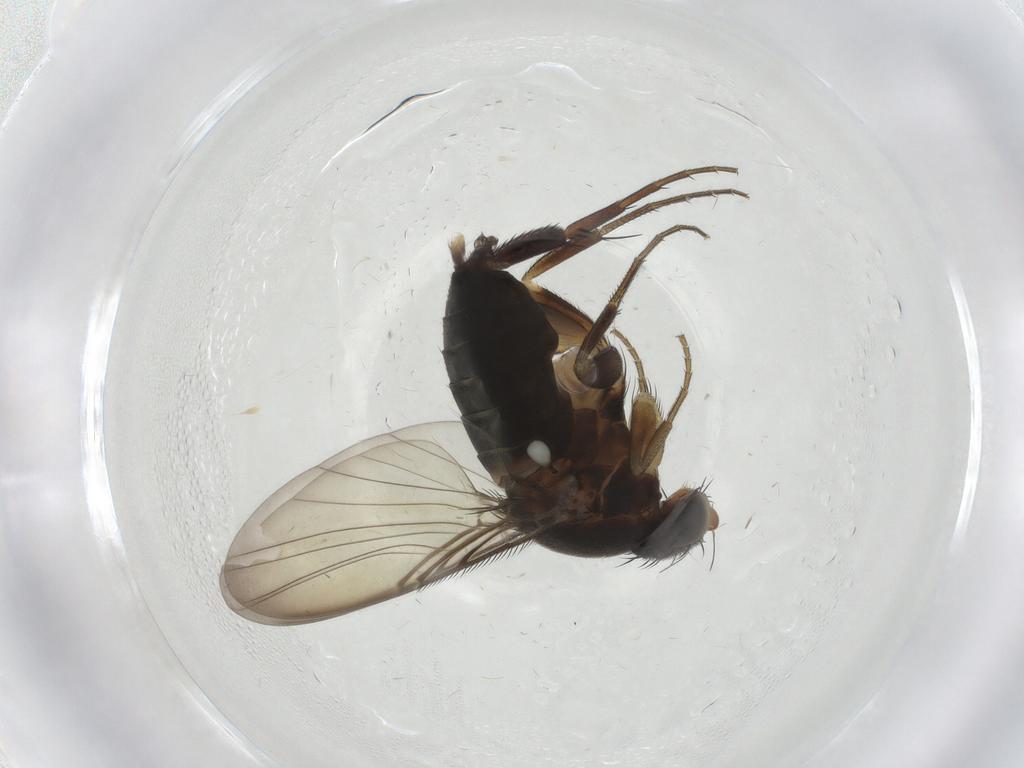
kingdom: Animalia
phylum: Arthropoda
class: Insecta
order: Diptera
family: Phoridae
